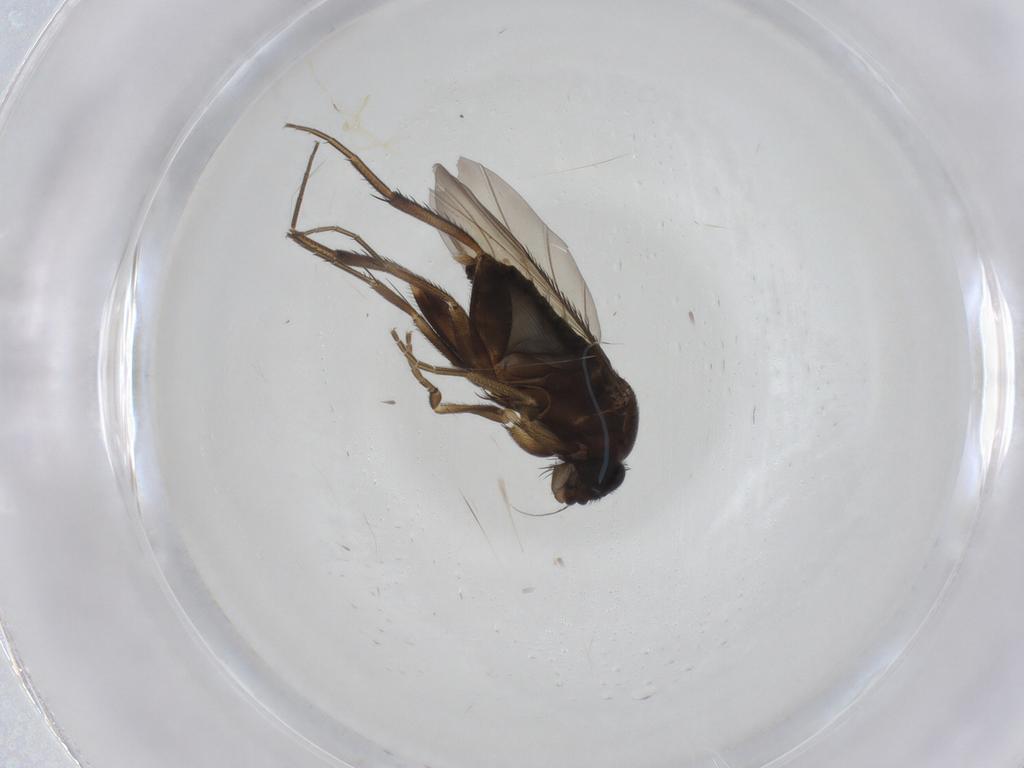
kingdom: Animalia
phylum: Arthropoda
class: Insecta
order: Diptera
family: Phoridae
